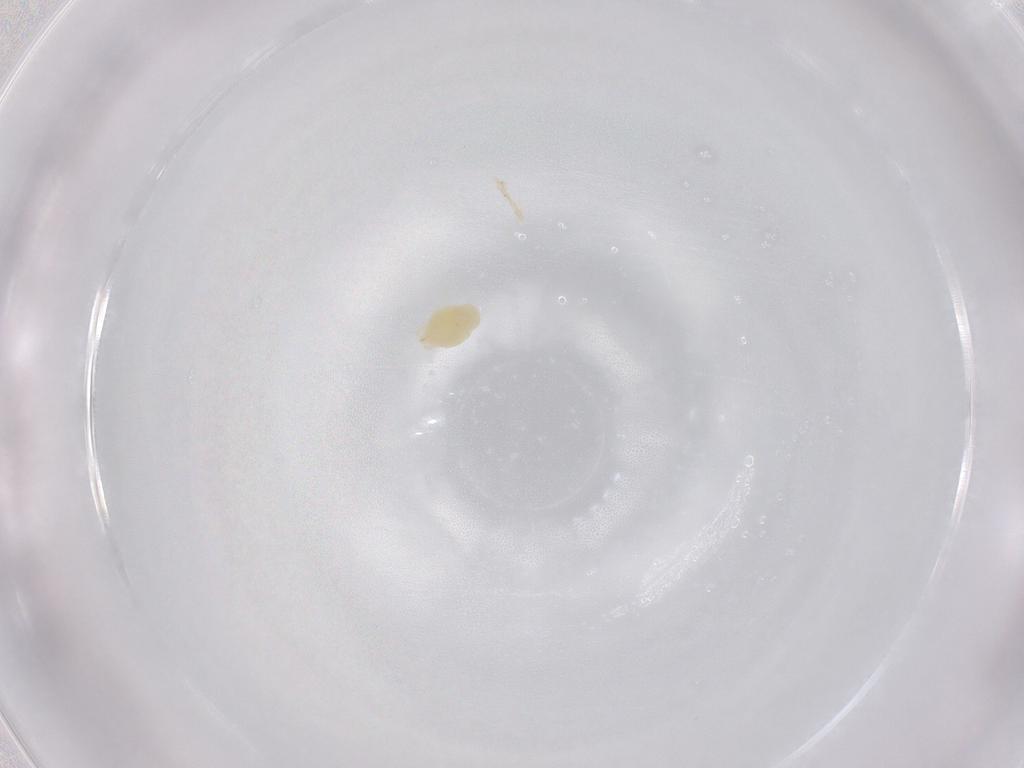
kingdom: Animalia
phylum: Arthropoda
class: Arachnida
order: Trombidiformes
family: Tetranychidae
